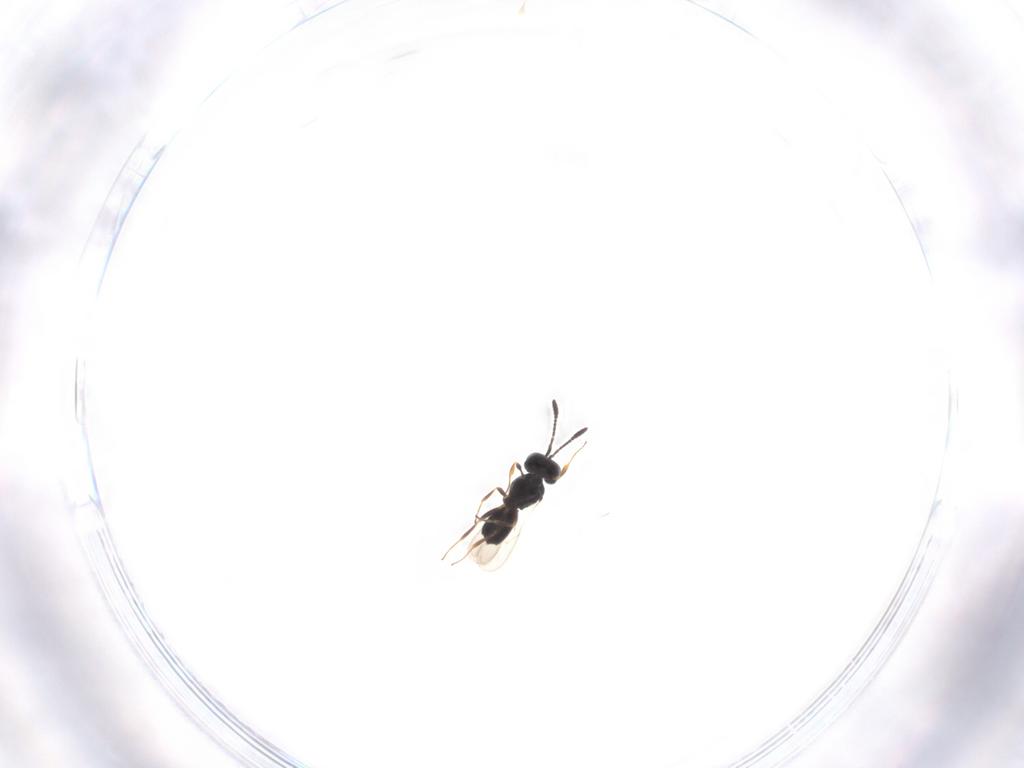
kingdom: Animalia
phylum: Arthropoda
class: Insecta
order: Hymenoptera
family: Scelionidae
